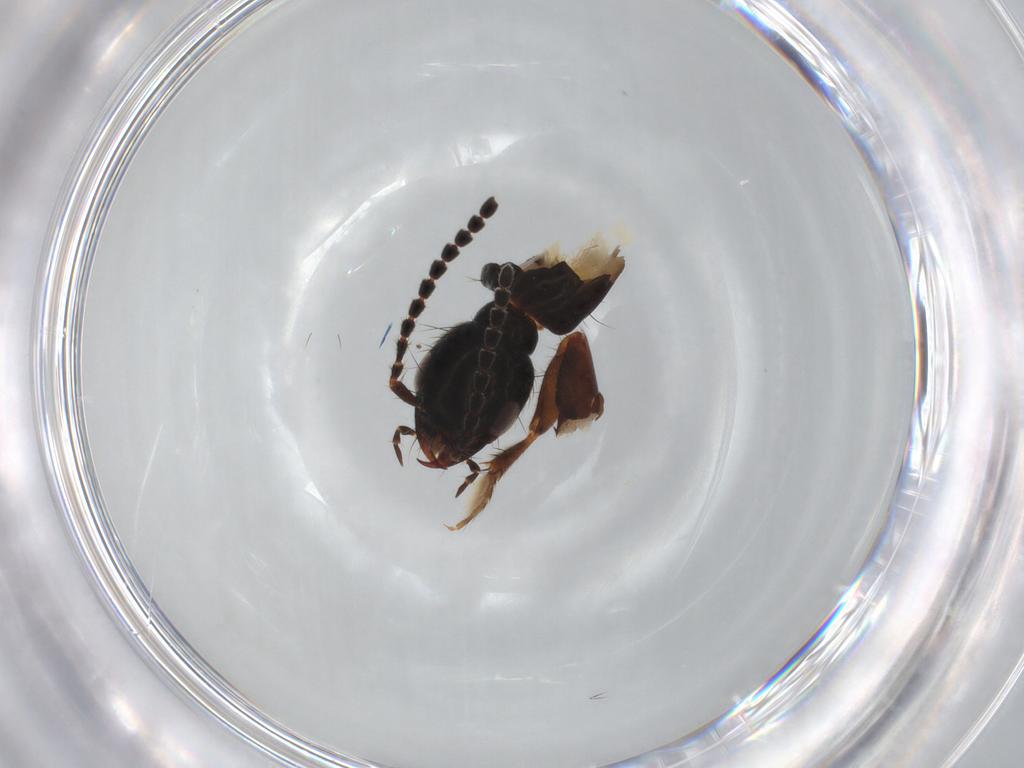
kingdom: Animalia
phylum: Arthropoda
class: Insecta
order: Coleoptera
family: Staphylinidae
